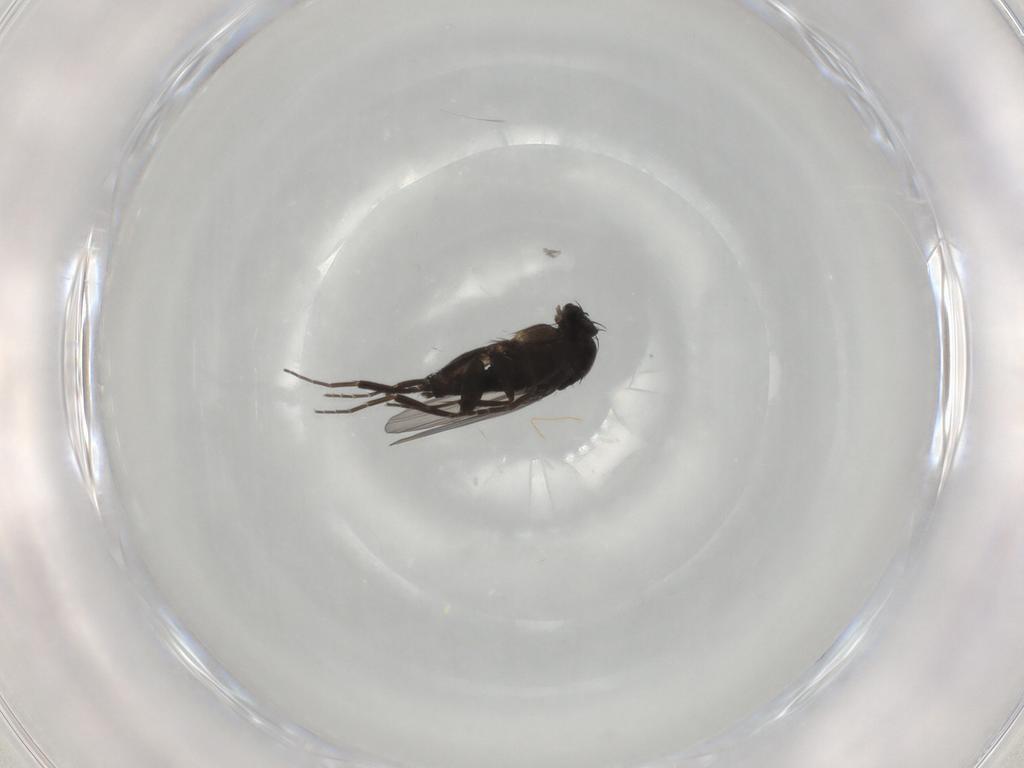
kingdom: Animalia
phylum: Arthropoda
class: Insecta
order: Diptera
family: Phoridae
